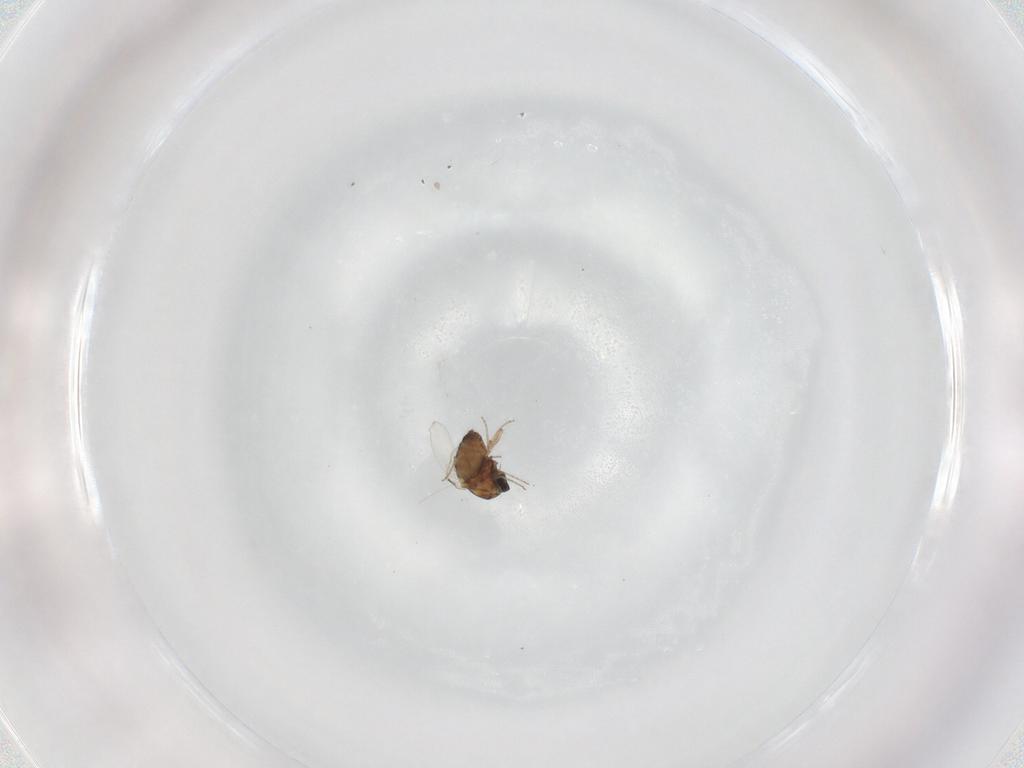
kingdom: Animalia
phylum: Arthropoda
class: Insecta
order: Diptera
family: Ceratopogonidae
